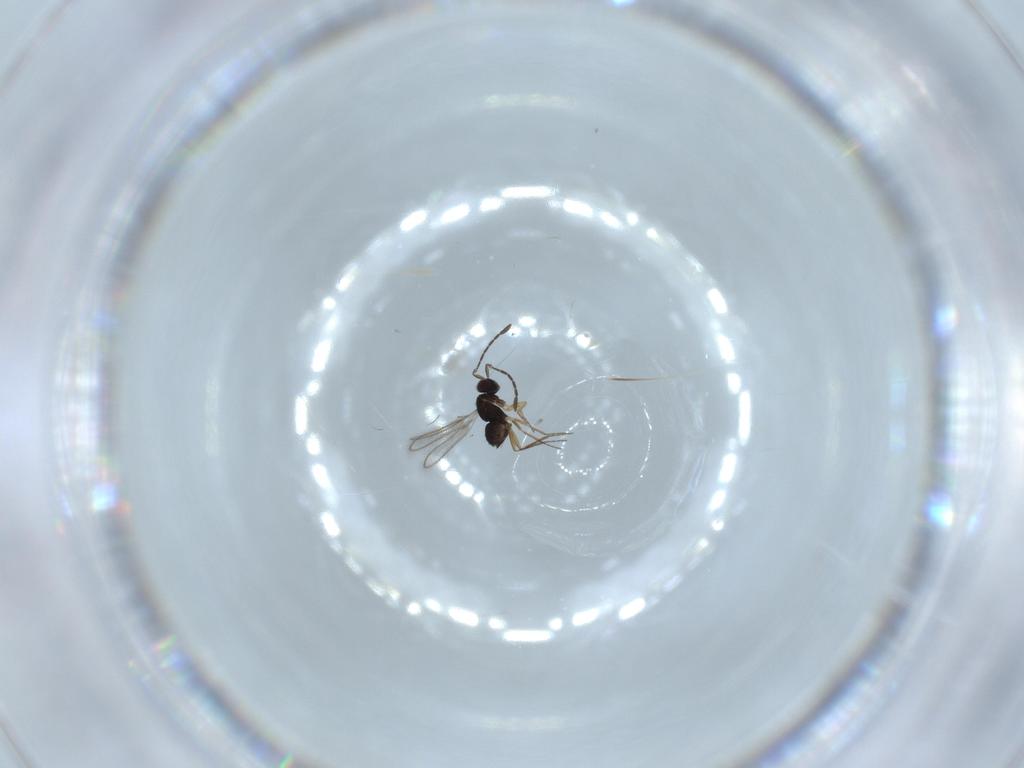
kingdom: Animalia
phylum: Arthropoda
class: Insecta
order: Hymenoptera
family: Mymaridae
